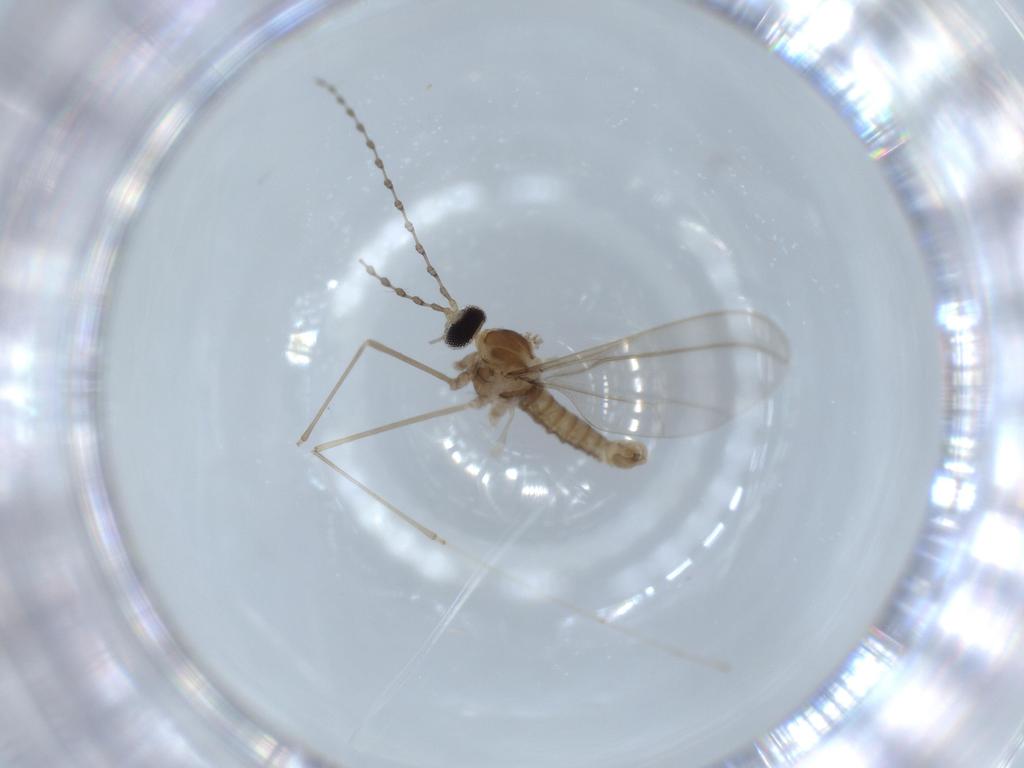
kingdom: Animalia
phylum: Arthropoda
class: Insecta
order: Diptera
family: Cecidomyiidae
